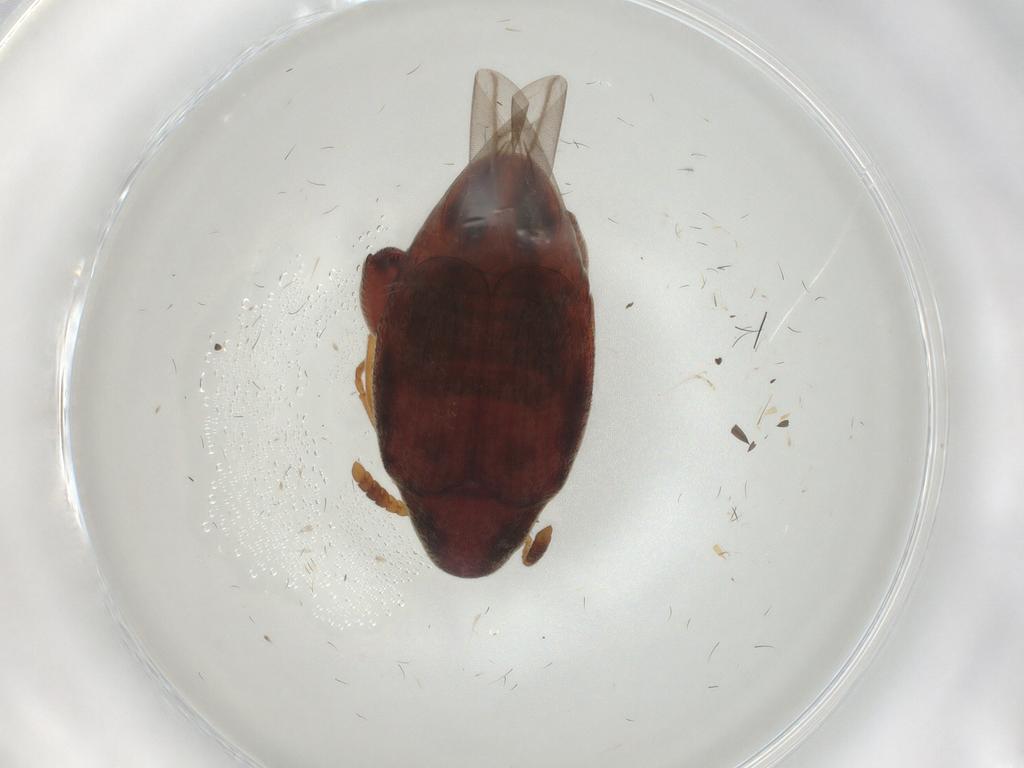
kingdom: Animalia
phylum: Arthropoda
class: Insecta
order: Coleoptera
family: Chrysomelidae
